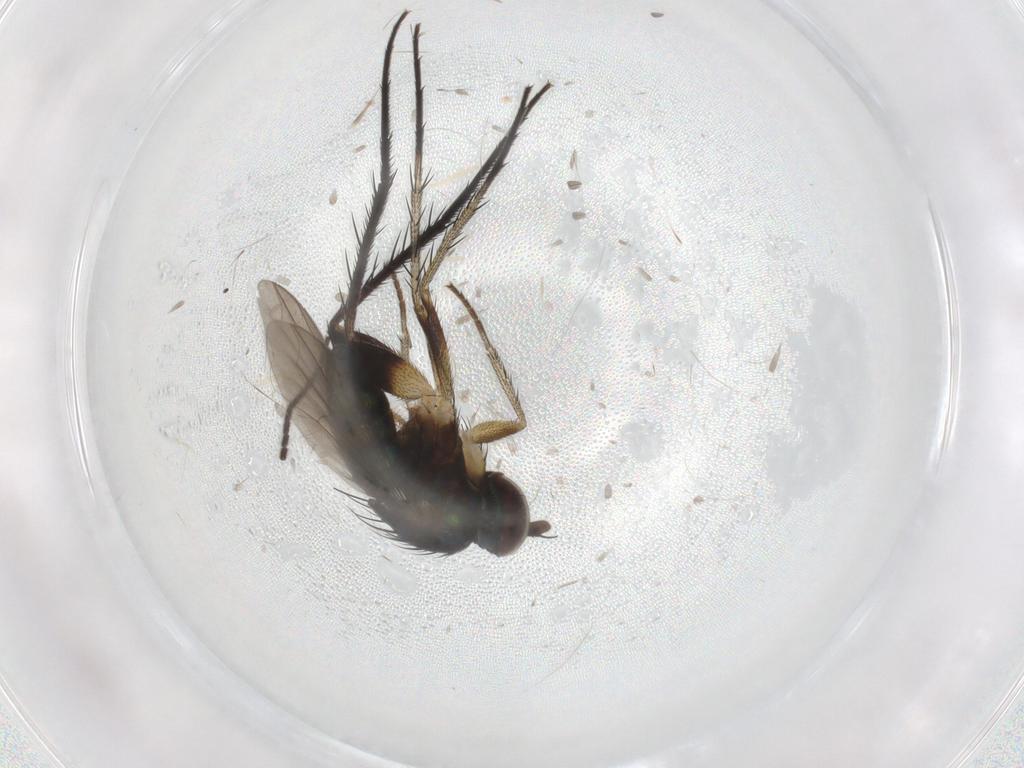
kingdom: Animalia
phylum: Arthropoda
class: Insecta
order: Diptera
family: Dolichopodidae
